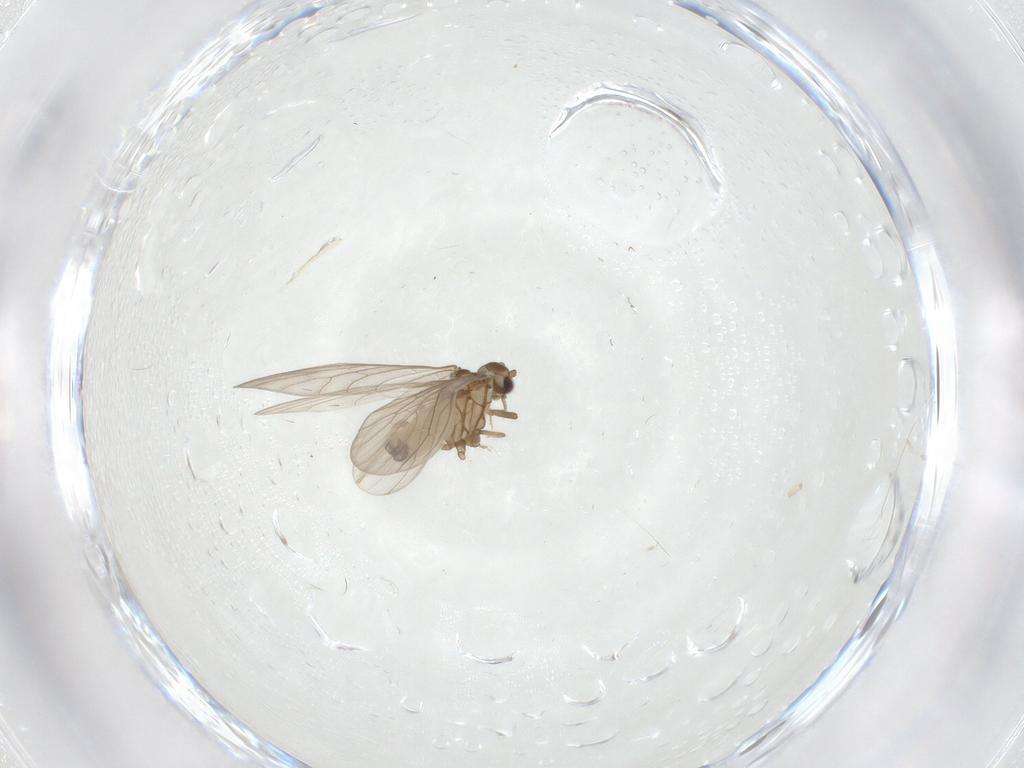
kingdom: Animalia
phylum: Arthropoda
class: Insecta
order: Neuroptera
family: Coniopterygidae
